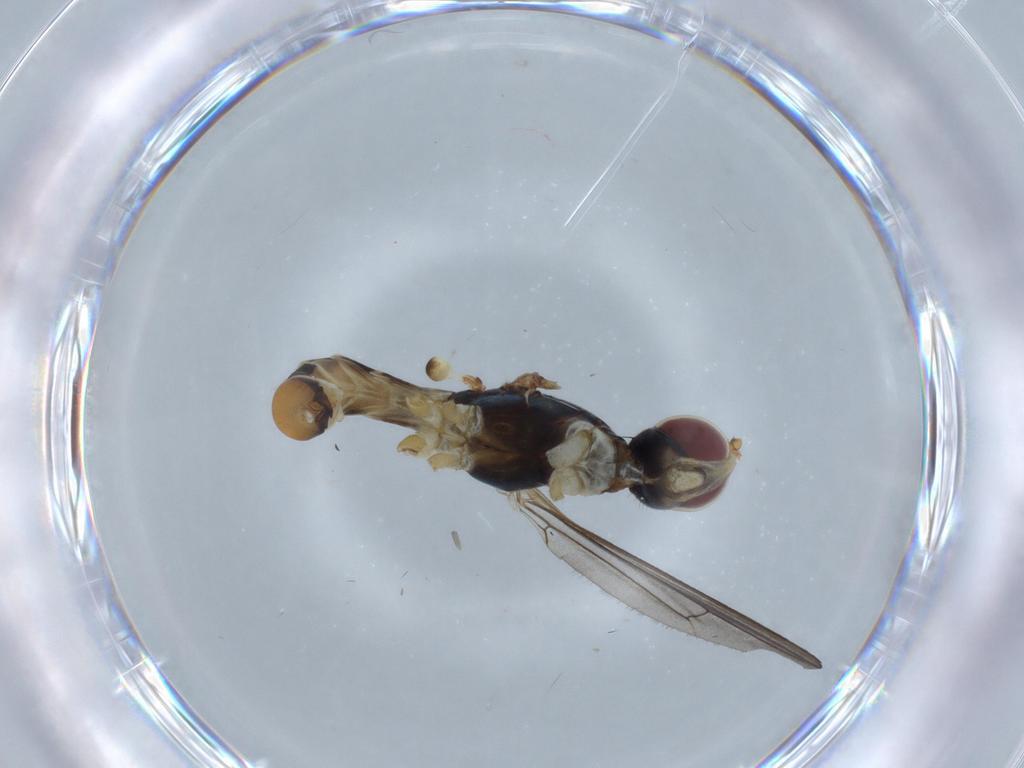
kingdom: Animalia
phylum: Arthropoda
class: Insecta
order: Diptera
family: Micropezidae
